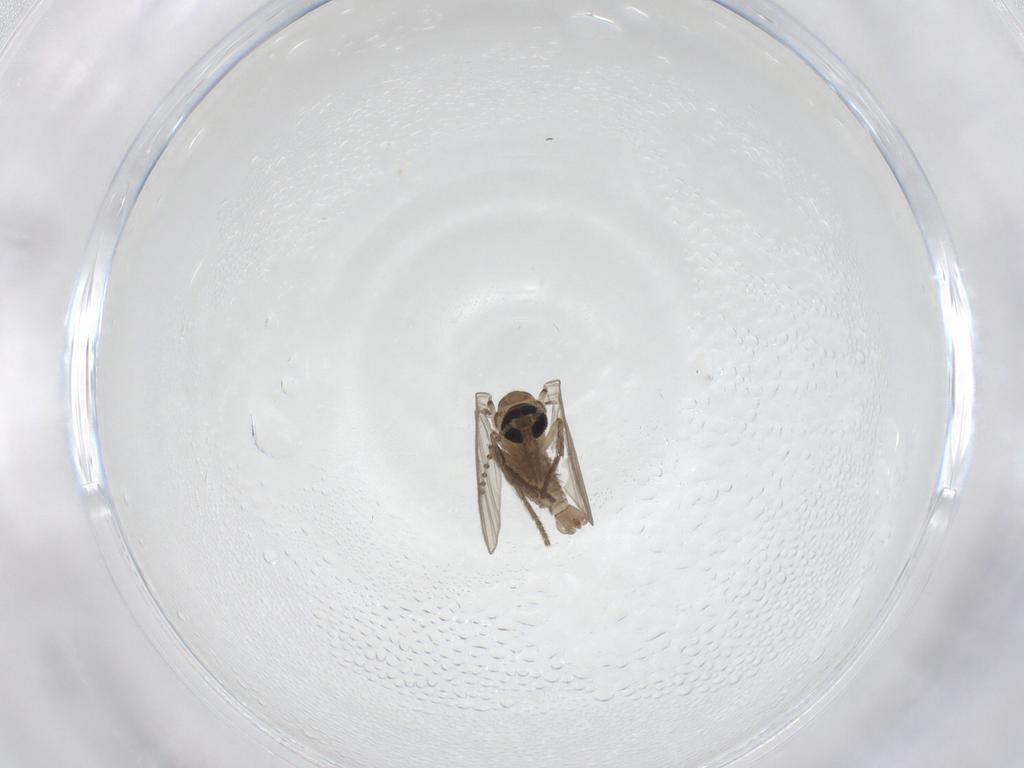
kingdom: Animalia
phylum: Arthropoda
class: Insecta
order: Diptera
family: Psychodidae
